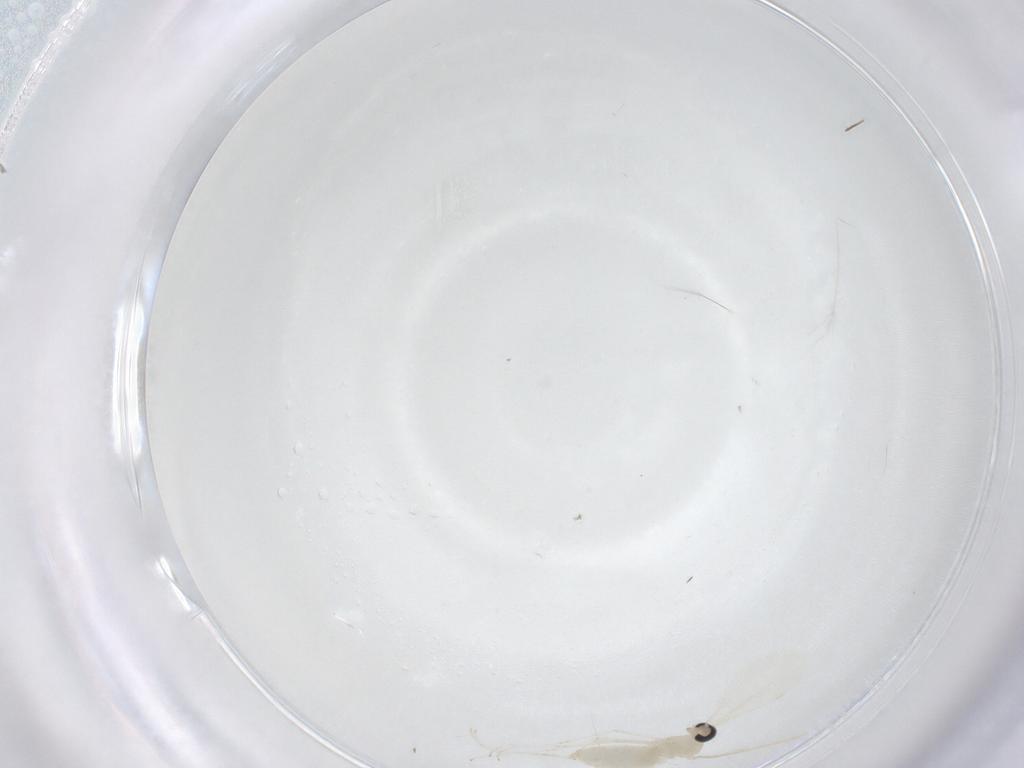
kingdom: Animalia
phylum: Arthropoda
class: Insecta
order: Diptera
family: Chironomidae
